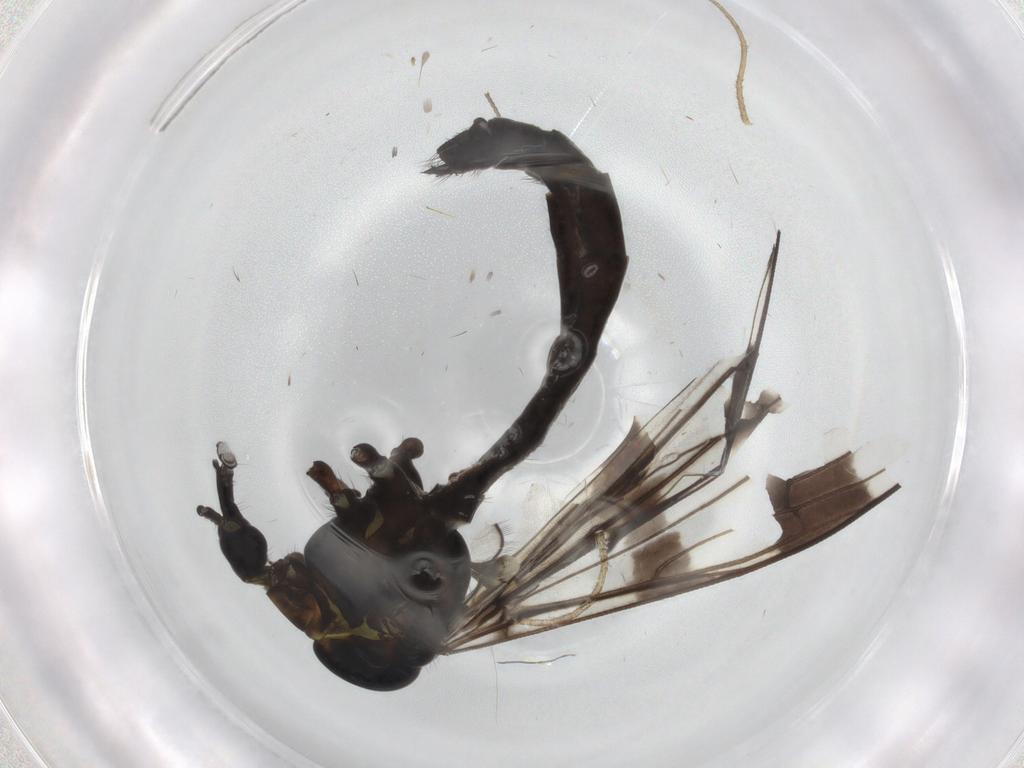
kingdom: Animalia
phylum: Arthropoda
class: Insecta
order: Diptera
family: Limoniidae
